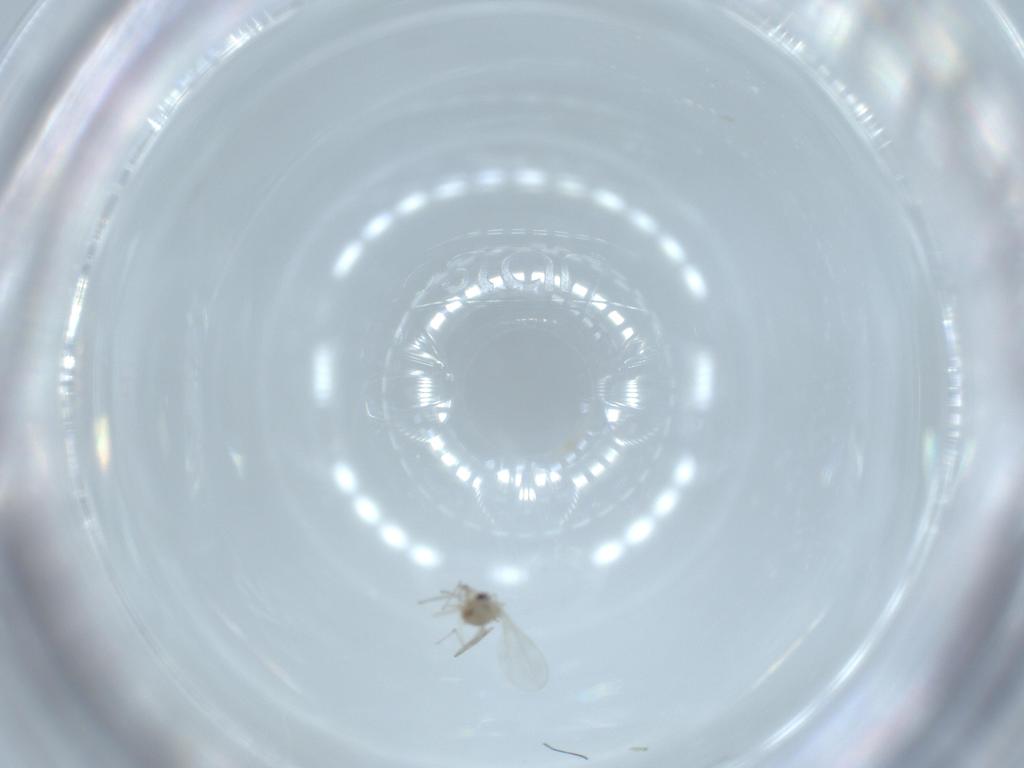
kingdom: Animalia
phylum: Arthropoda
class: Insecta
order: Diptera
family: Cecidomyiidae
